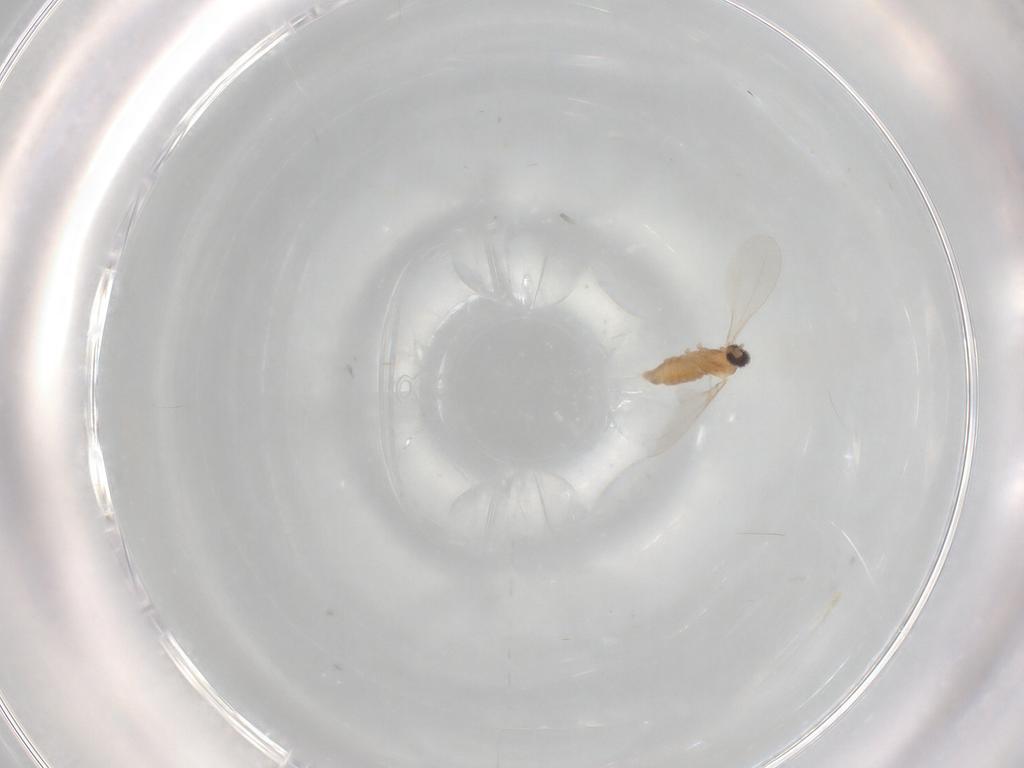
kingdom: Animalia
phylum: Arthropoda
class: Insecta
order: Diptera
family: Cecidomyiidae
